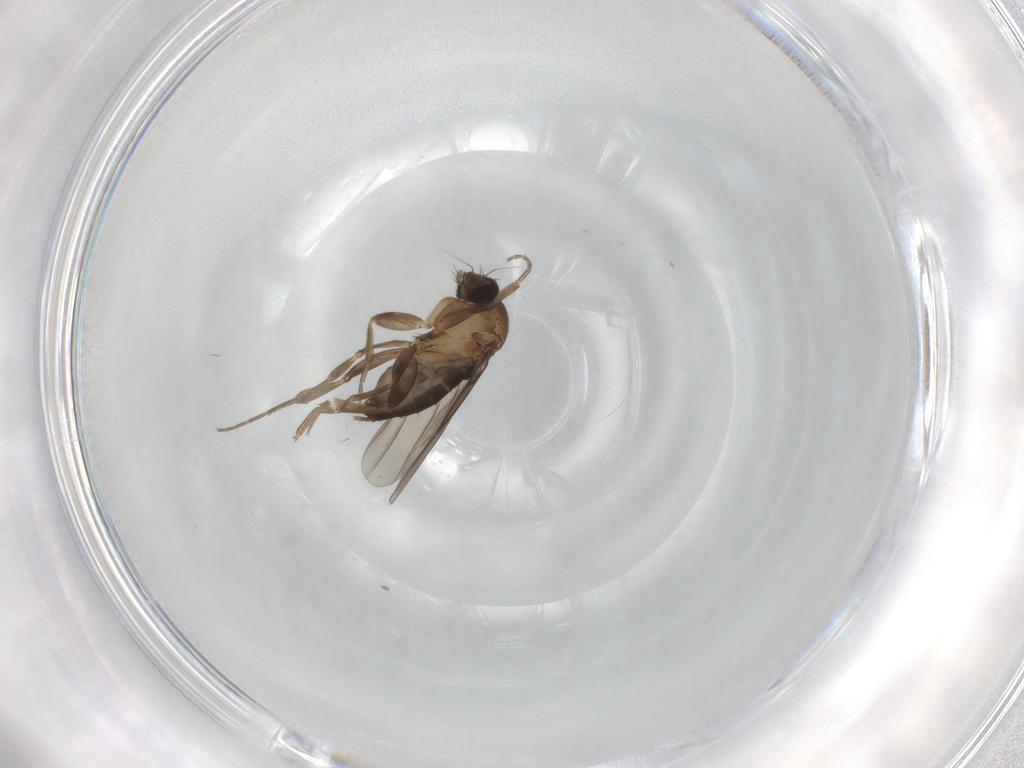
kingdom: Animalia
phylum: Arthropoda
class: Insecta
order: Diptera
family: Phoridae
